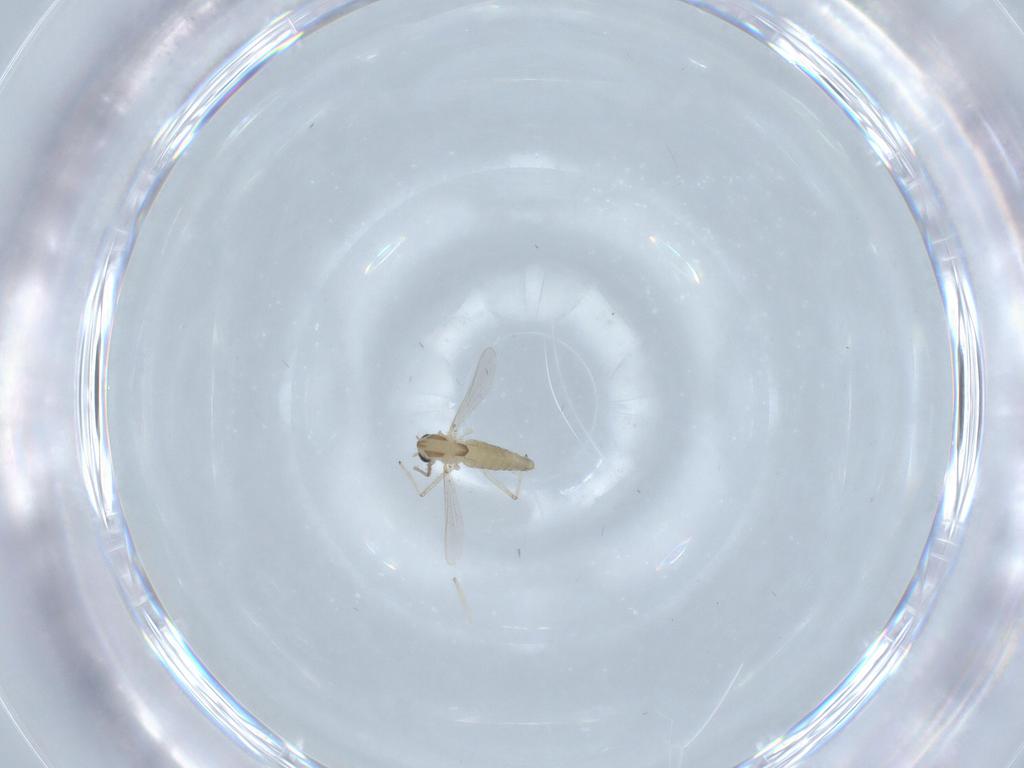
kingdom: Animalia
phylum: Arthropoda
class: Insecta
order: Diptera
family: Chironomidae
